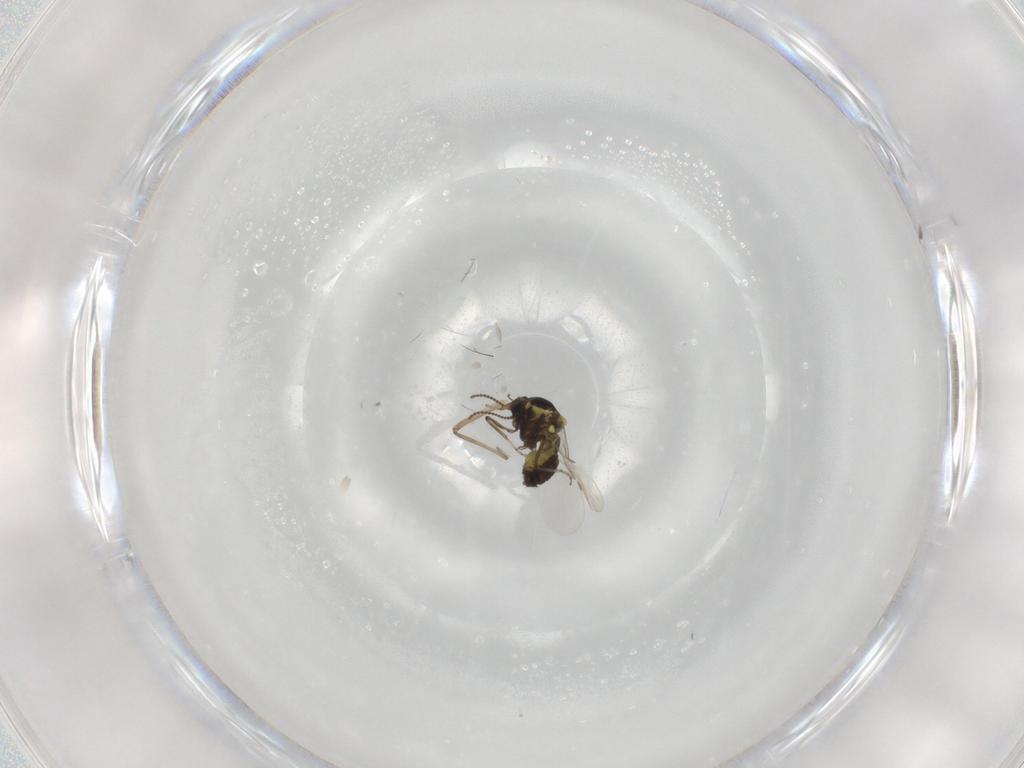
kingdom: Animalia
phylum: Arthropoda
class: Insecta
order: Diptera
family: Ceratopogonidae
